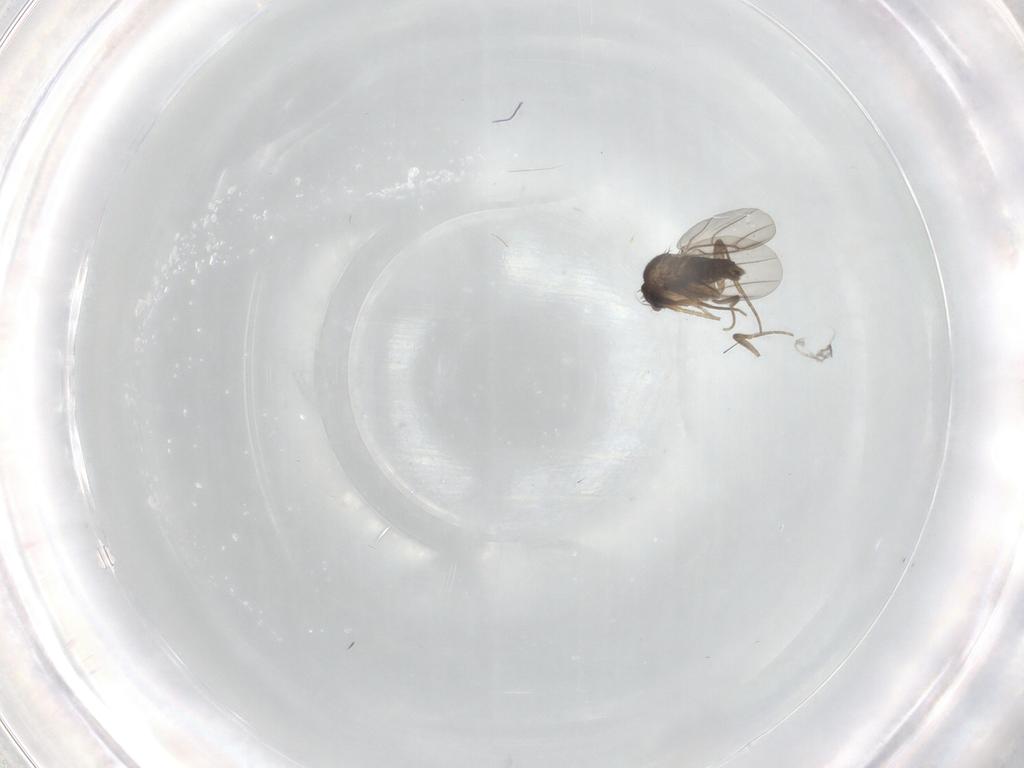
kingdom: Animalia
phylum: Arthropoda
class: Insecta
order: Diptera
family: Phoridae
